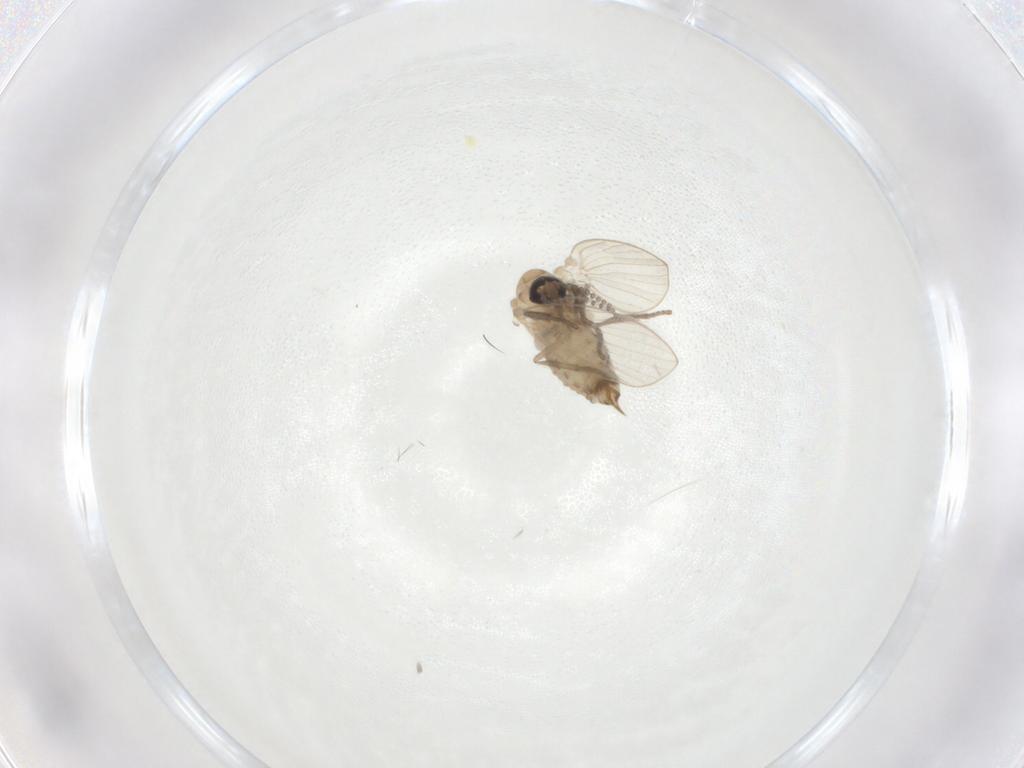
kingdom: Animalia
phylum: Arthropoda
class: Insecta
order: Diptera
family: Psychodidae
